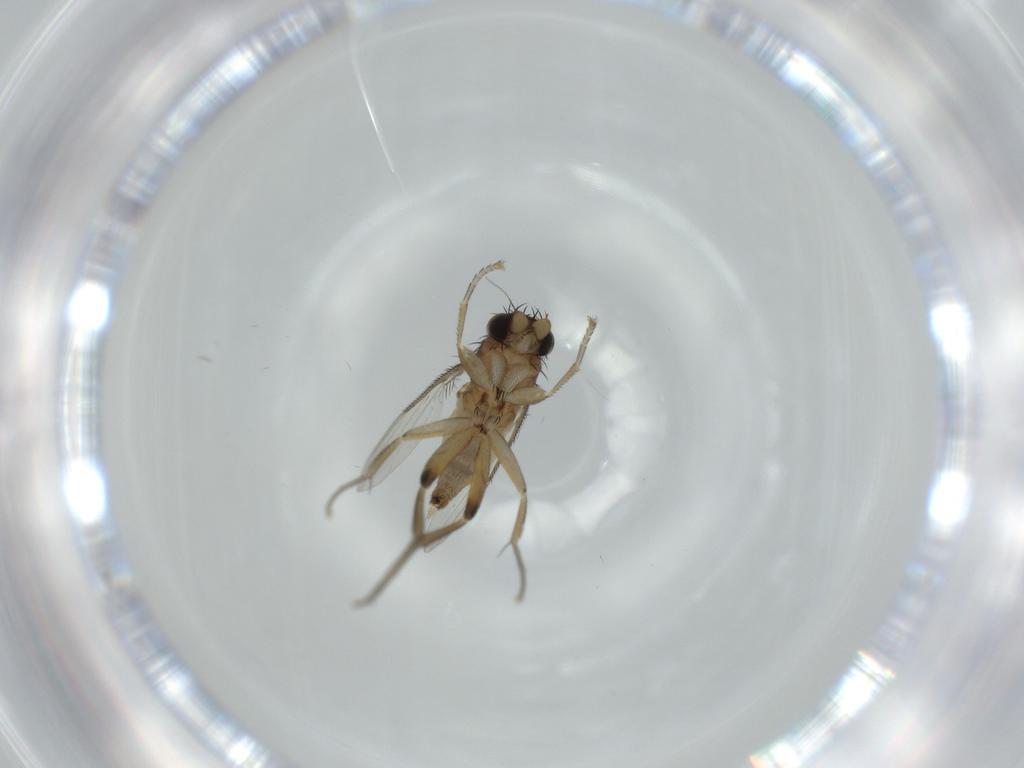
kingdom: Animalia
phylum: Arthropoda
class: Insecta
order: Diptera
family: Phoridae
